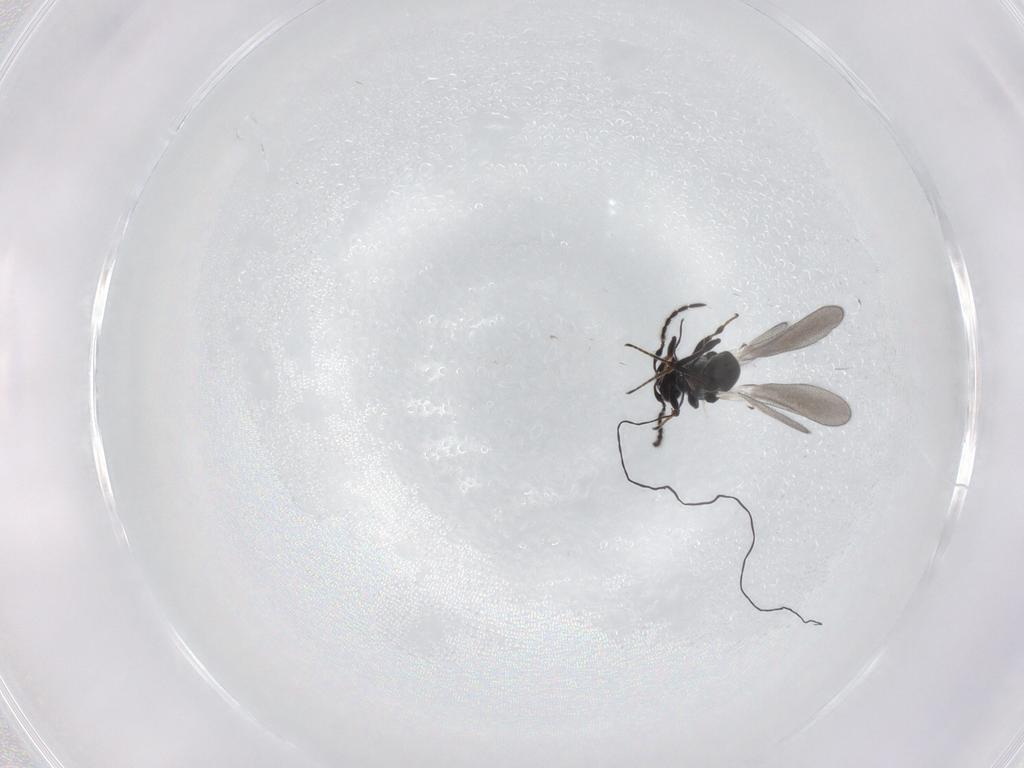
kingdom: Animalia
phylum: Arthropoda
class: Insecta
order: Hymenoptera
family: Platygastridae
